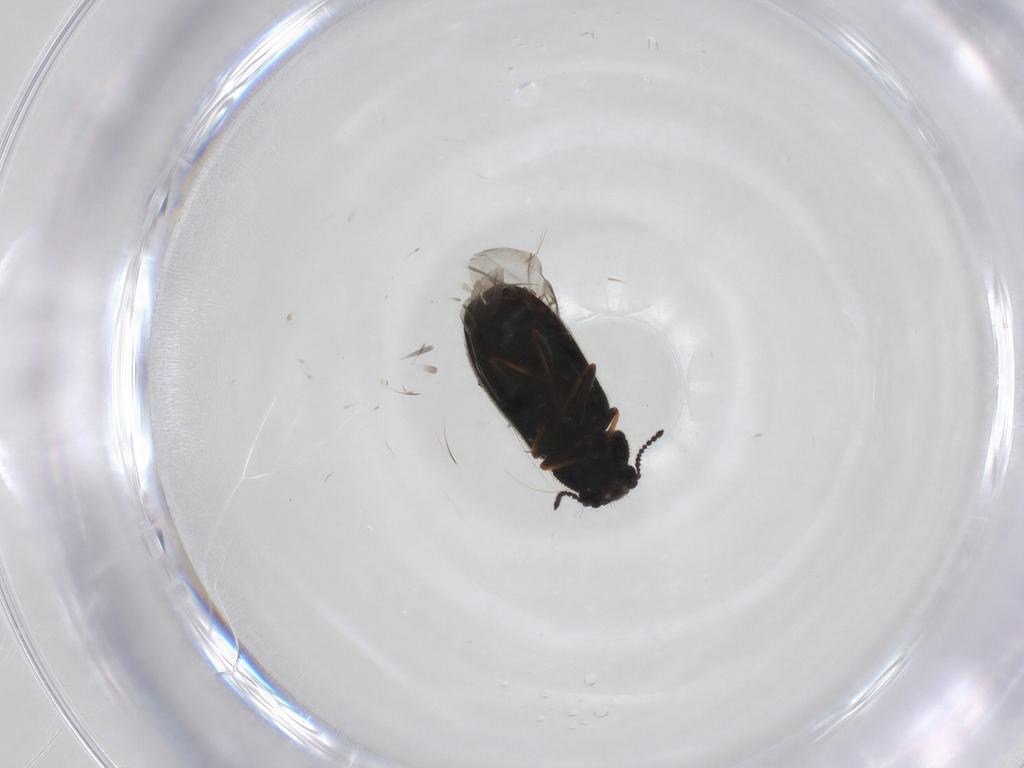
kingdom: Animalia
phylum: Arthropoda
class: Insecta
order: Coleoptera
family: Melyridae
